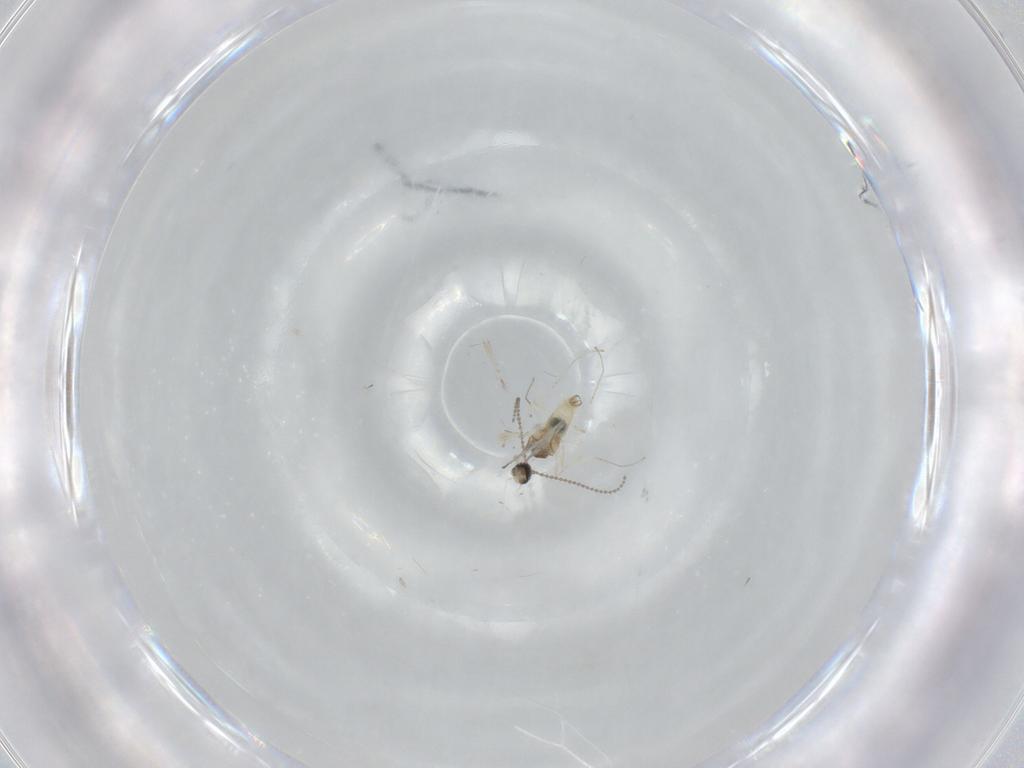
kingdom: Animalia
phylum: Arthropoda
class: Insecta
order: Diptera
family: Cecidomyiidae
